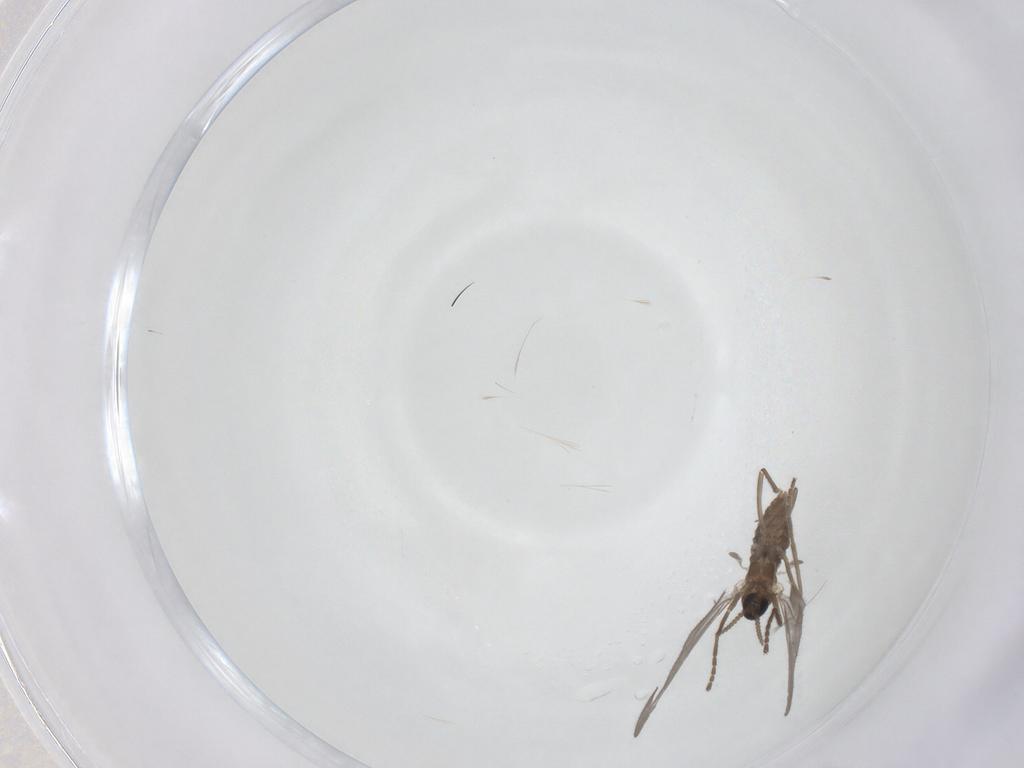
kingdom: Animalia
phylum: Arthropoda
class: Insecta
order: Diptera
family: Cecidomyiidae
